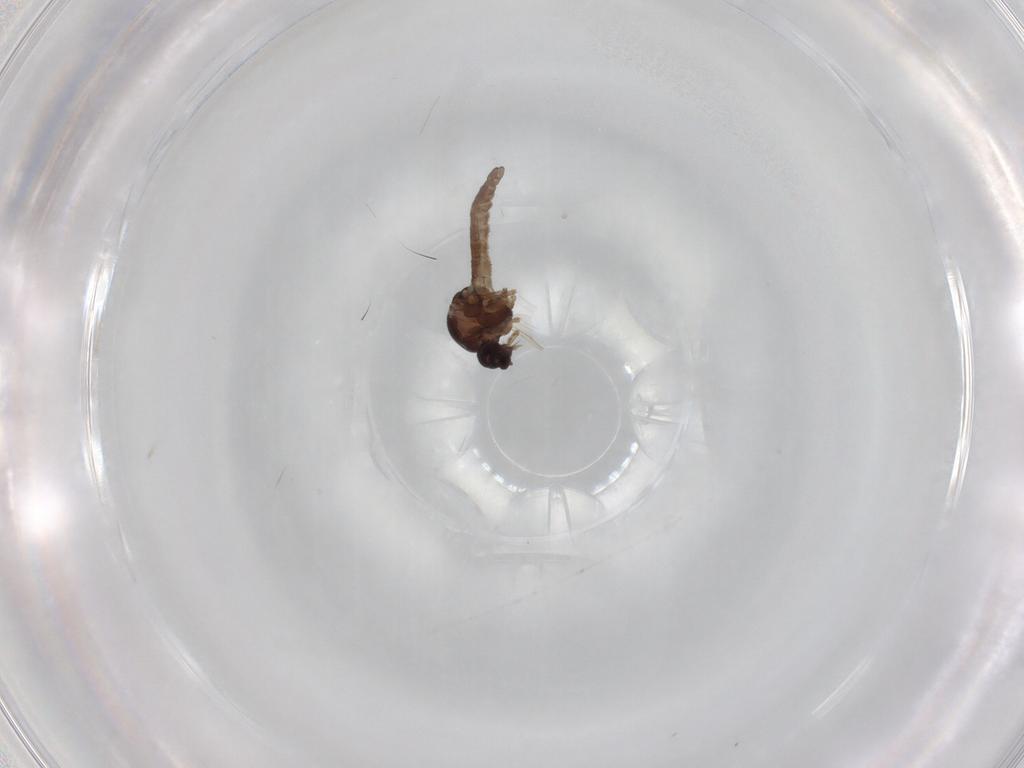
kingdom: Animalia
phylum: Arthropoda
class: Insecta
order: Diptera
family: Ceratopogonidae
